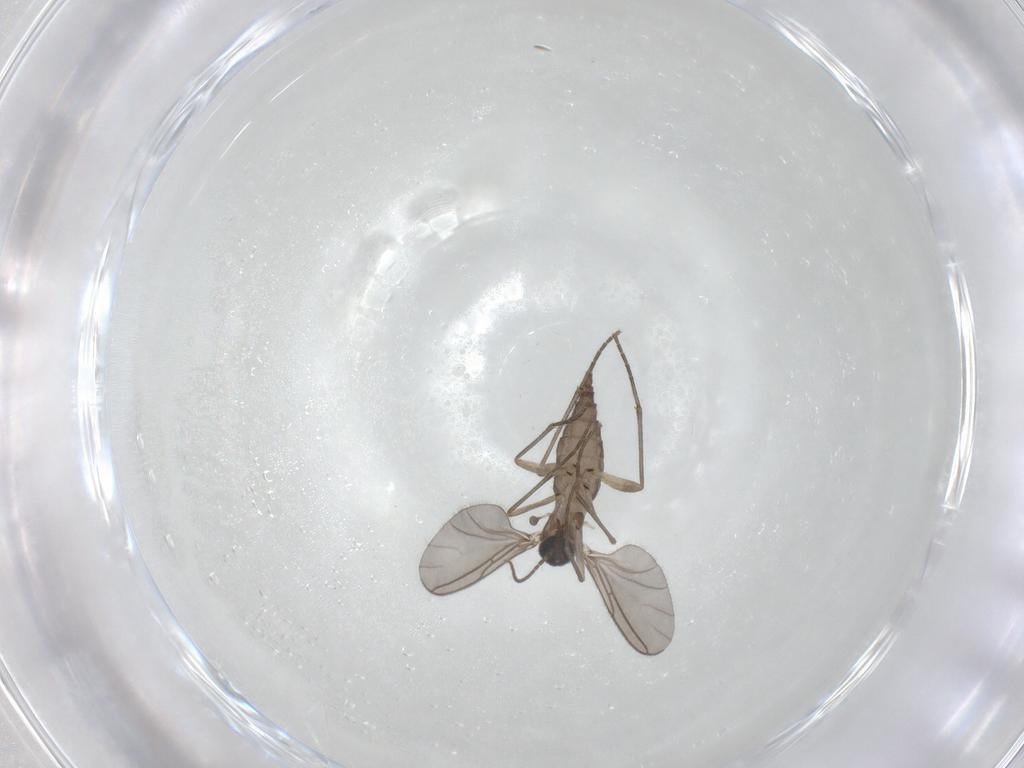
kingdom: Animalia
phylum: Arthropoda
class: Insecta
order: Diptera
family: Sciaridae
